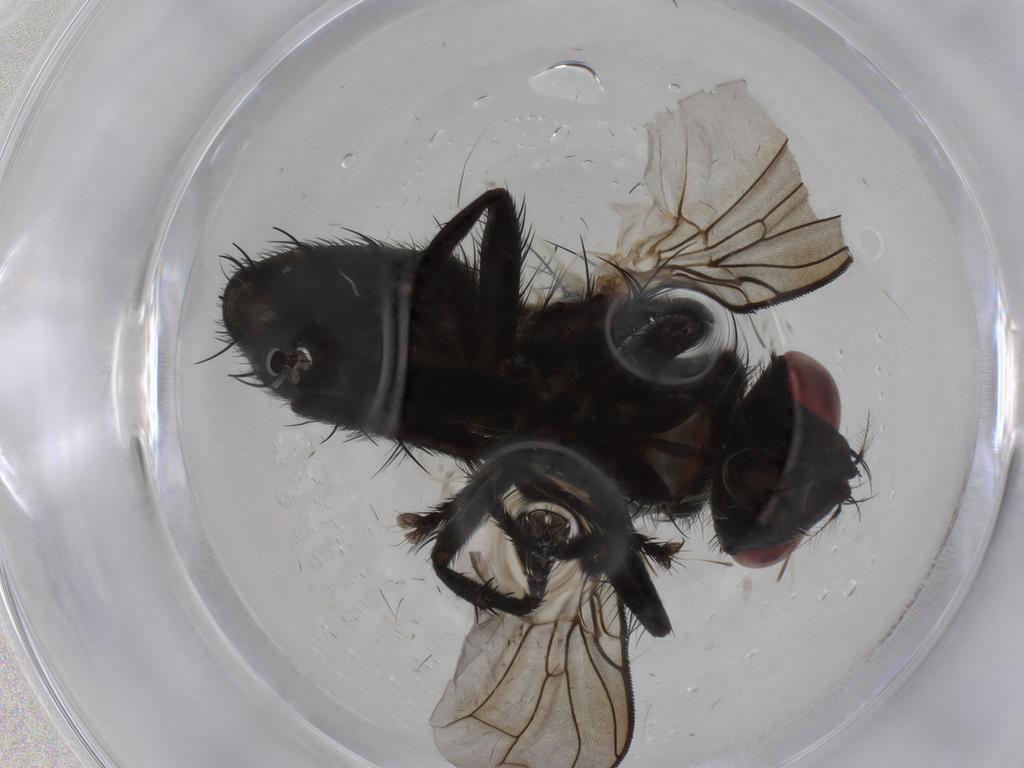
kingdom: Animalia
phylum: Arthropoda
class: Insecta
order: Diptera
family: Sarcophagidae
